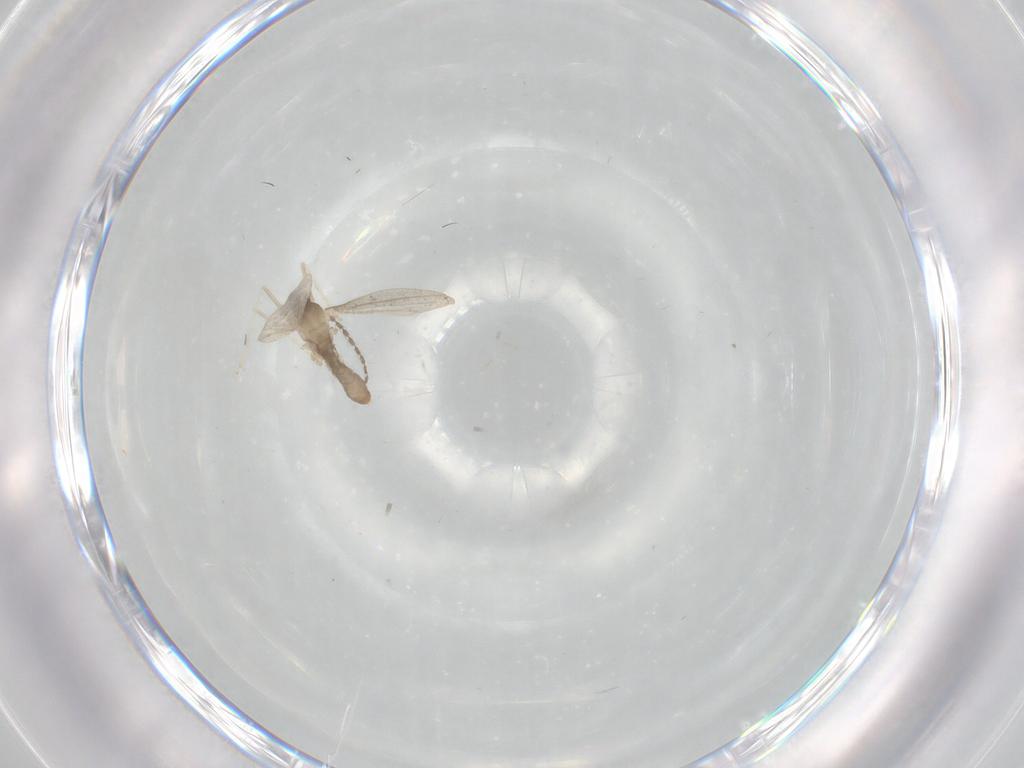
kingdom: Animalia
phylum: Arthropoda
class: Insecta
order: Diptera
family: Cecidomyiidae
